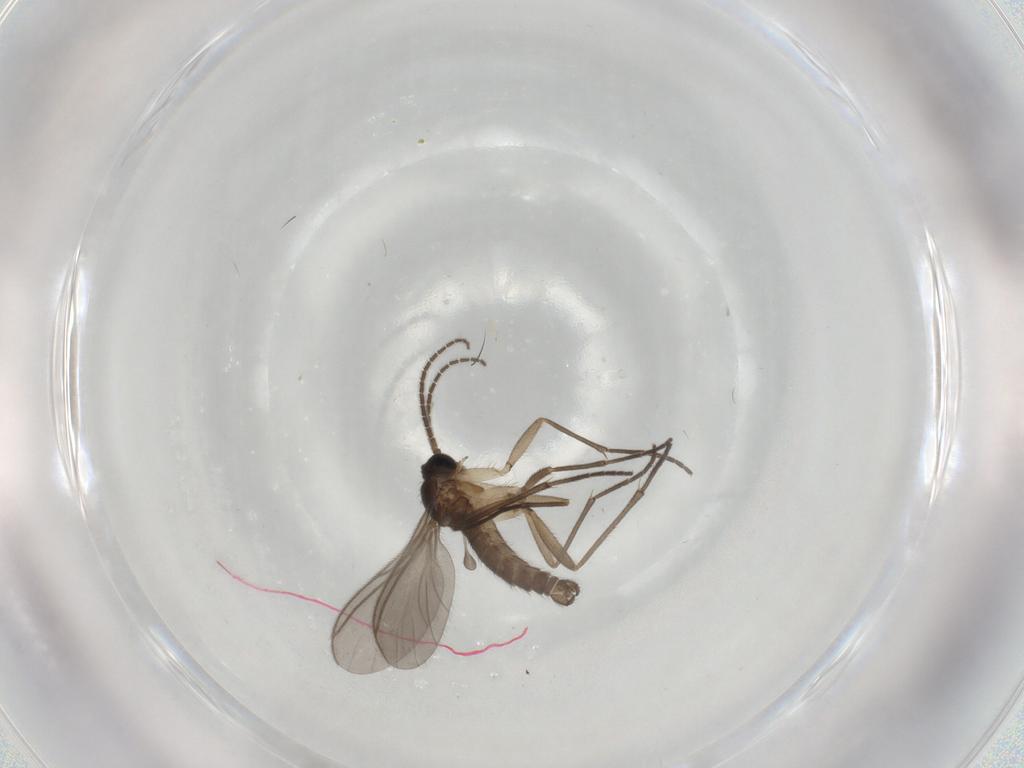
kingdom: Animalia
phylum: Arthropoda
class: Insecta
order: Diptera
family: Sciaridae
